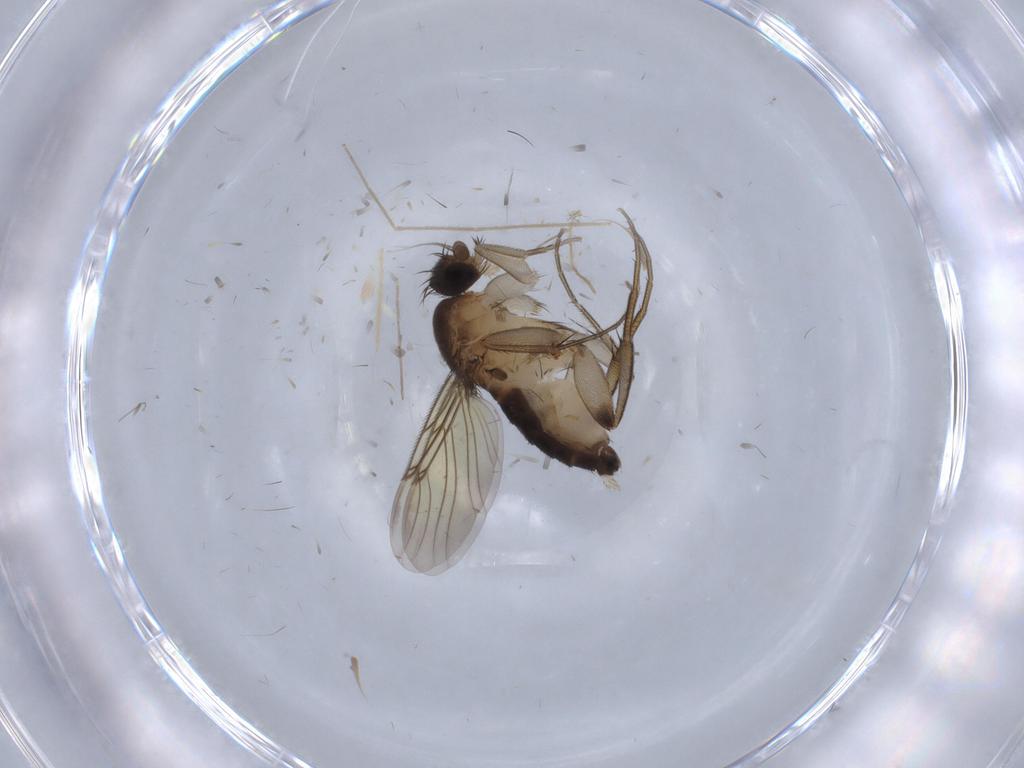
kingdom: Animalia
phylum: Arthropoda
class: Insecta
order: Diptera
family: Phoridae
